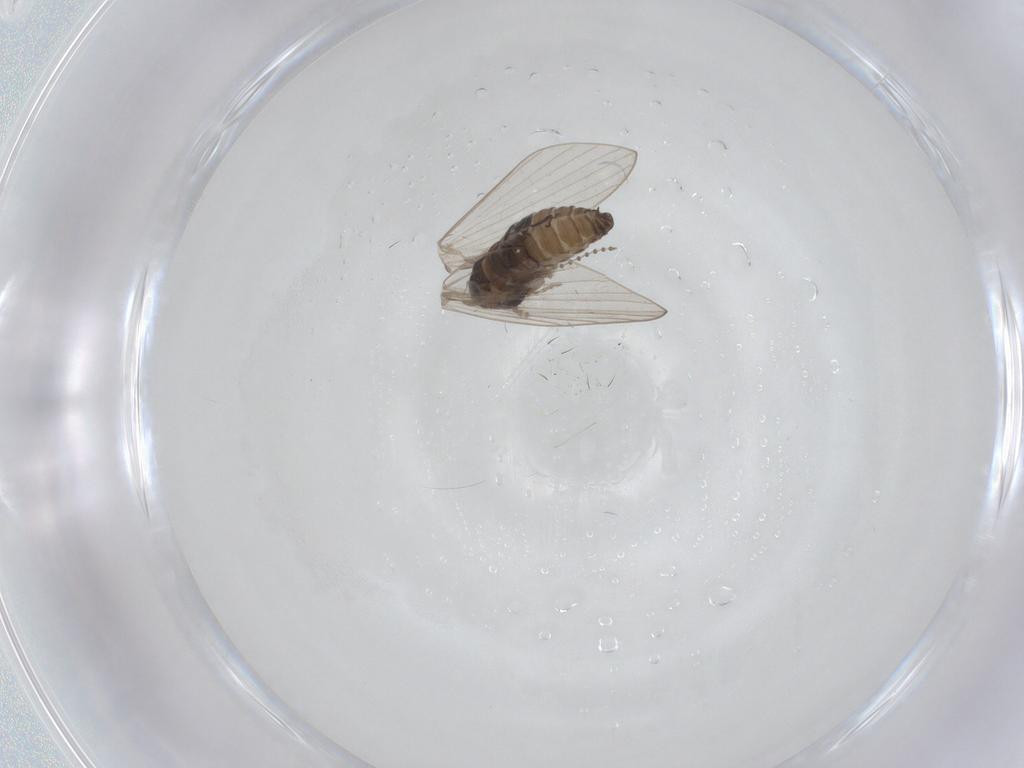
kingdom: Animalia
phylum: Arthropoda
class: Insecta
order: Diptera
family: Psychodidae
